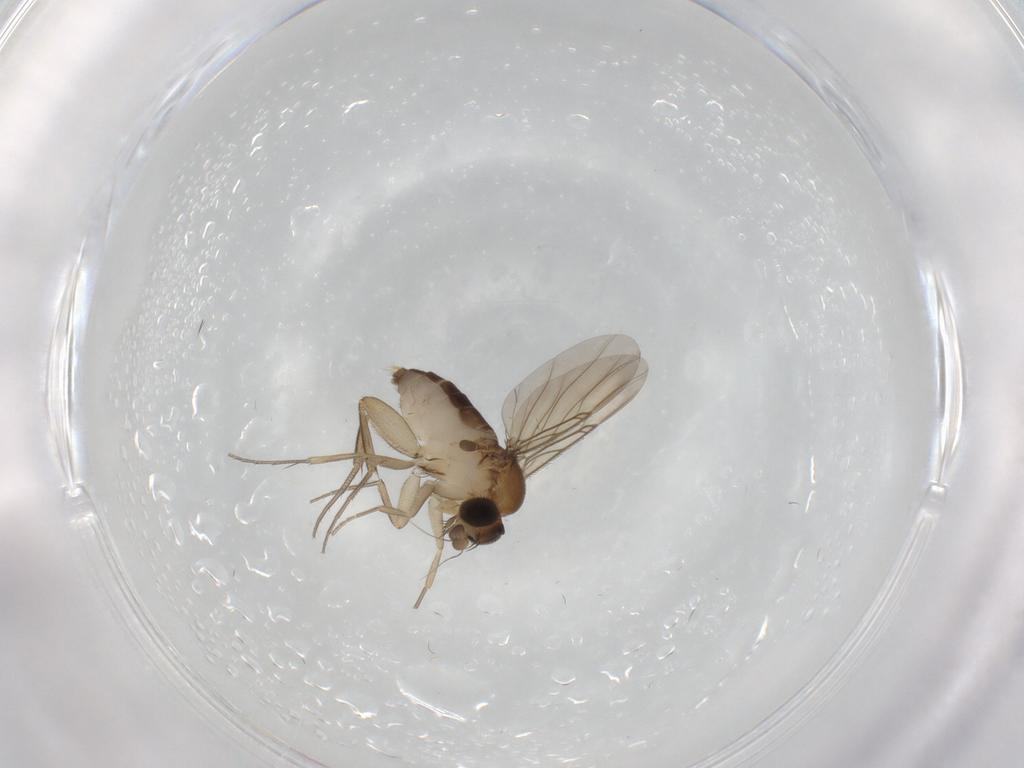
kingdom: Animalia
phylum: Arthropoda
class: Insecta
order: Diptera
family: Phoridae
